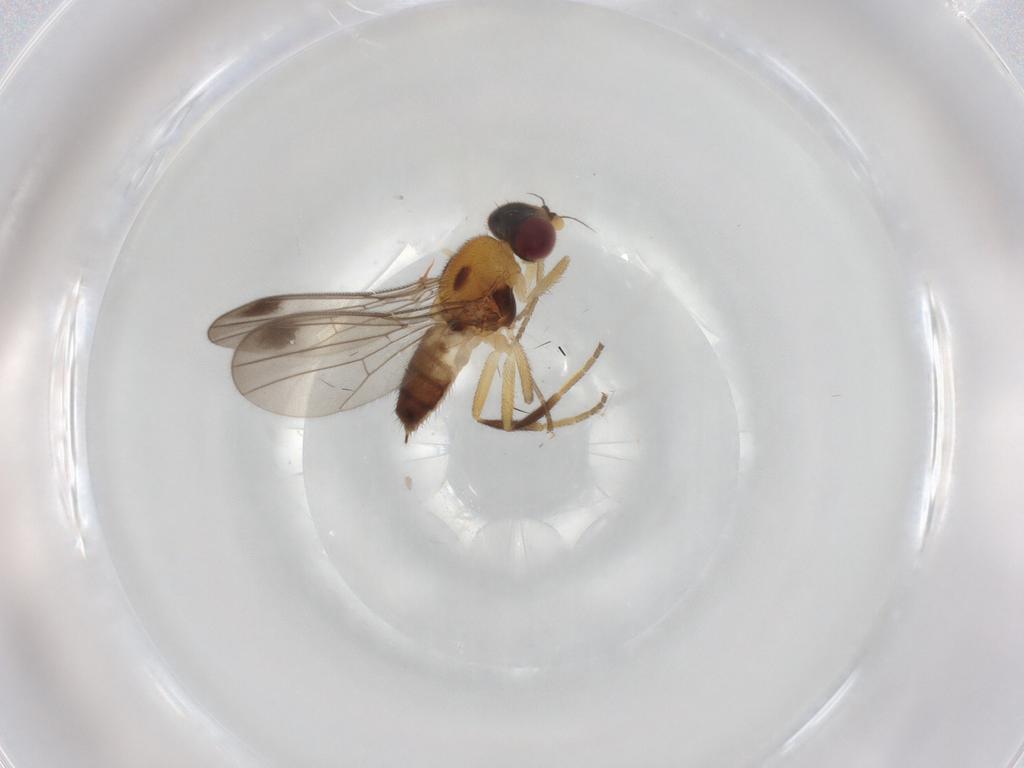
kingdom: Animalia
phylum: Arthropoda
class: Insecta
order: Diptera
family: Chloropidae
